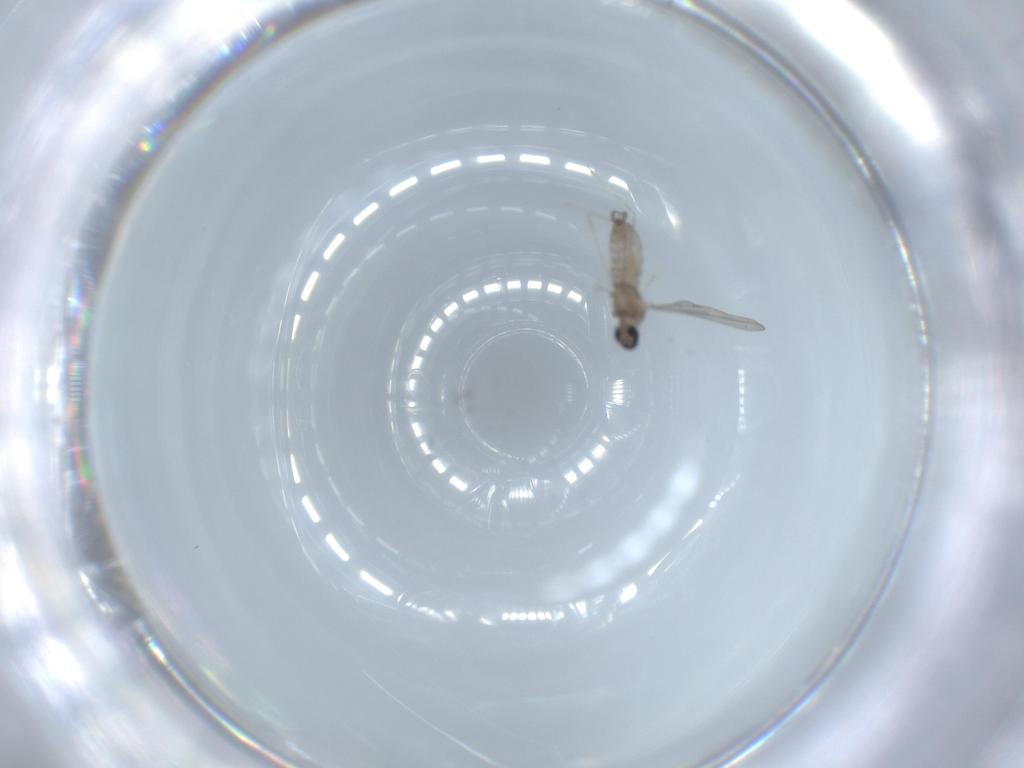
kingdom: Animalia
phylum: Arthropoda
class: Insecta
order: Diptera
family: Cecidomyiidae
